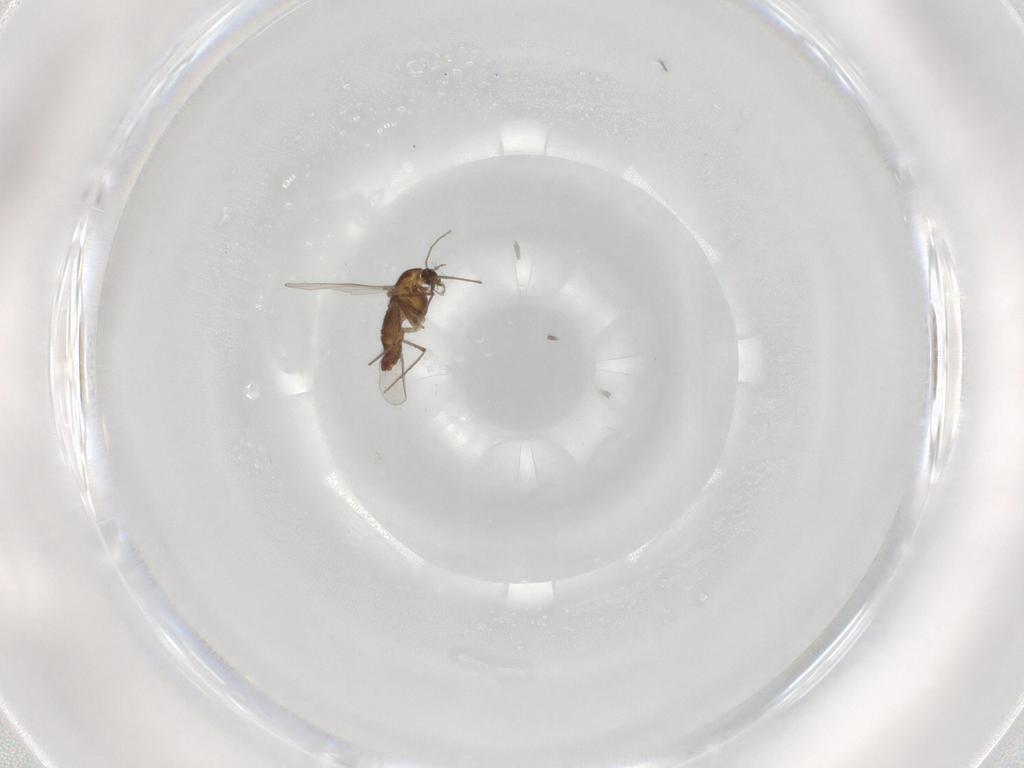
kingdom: Animalia
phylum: Arthropoda
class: Insecta
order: Diptera
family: Chironomidae
